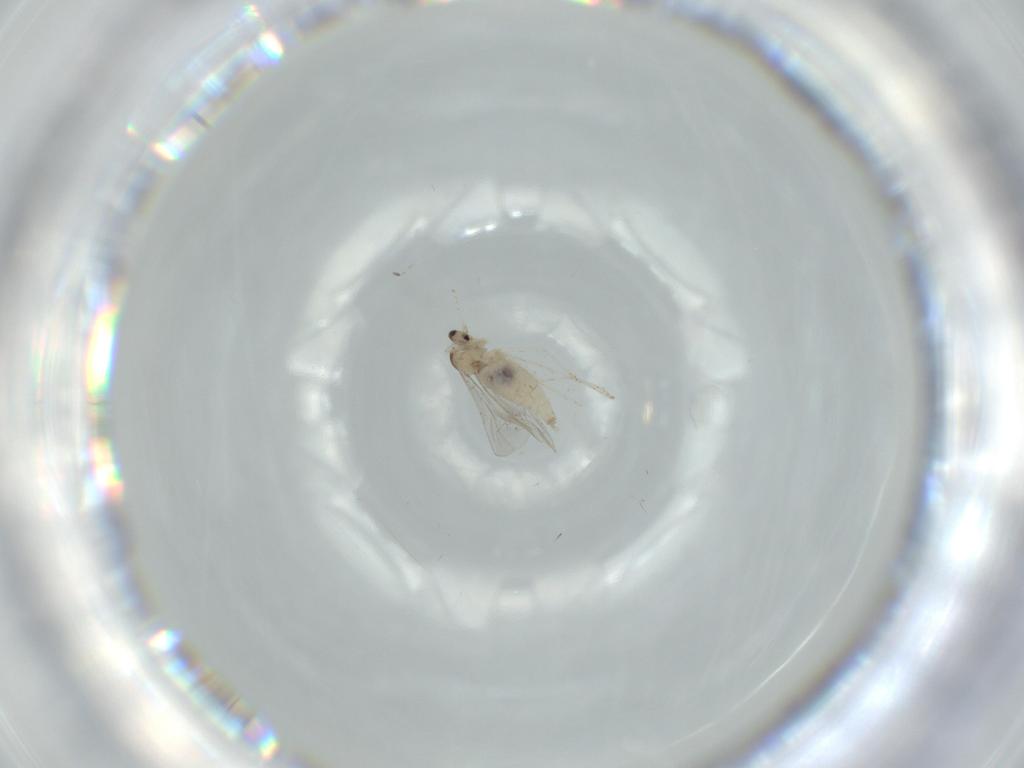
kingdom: Animalia
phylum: Arthropoda
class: Insecta
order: Diptera
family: Cecidomyiidae
